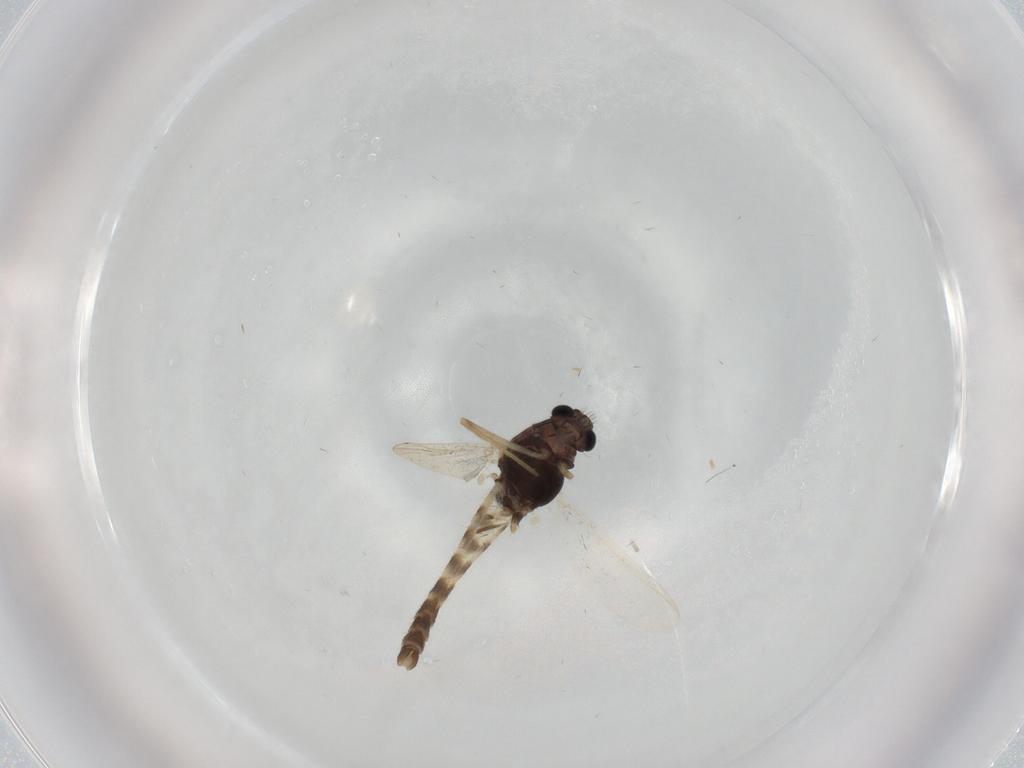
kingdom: Animalia
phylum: Arthropoda
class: Insecta
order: Diptera
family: Chironomidae
